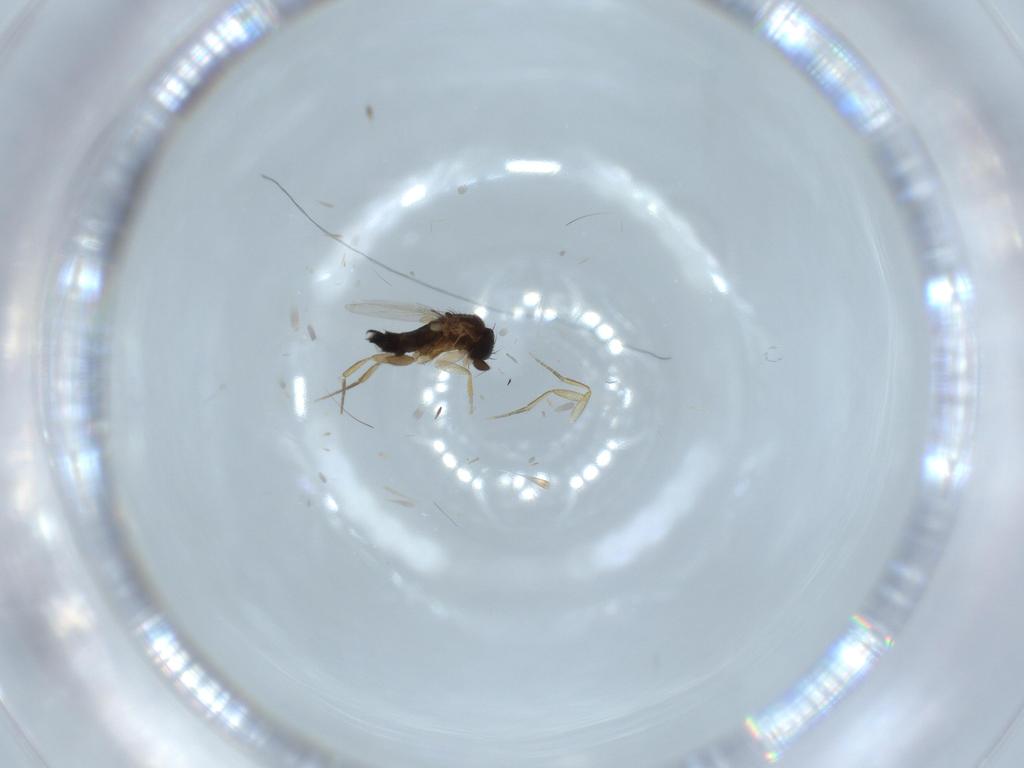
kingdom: Animalia
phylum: Arthropoda
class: Insecta
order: Diptera
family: Phoridae
